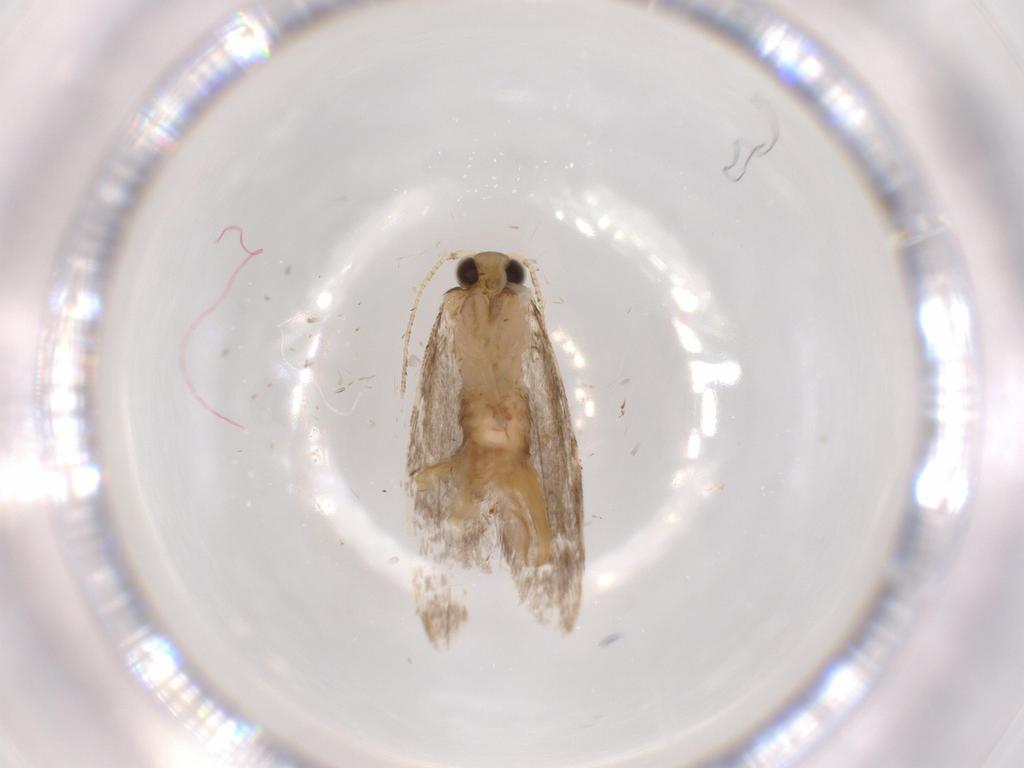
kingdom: Animalia
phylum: Arthropoda
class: Insecta
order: Lepidoptera
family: Tineidae
